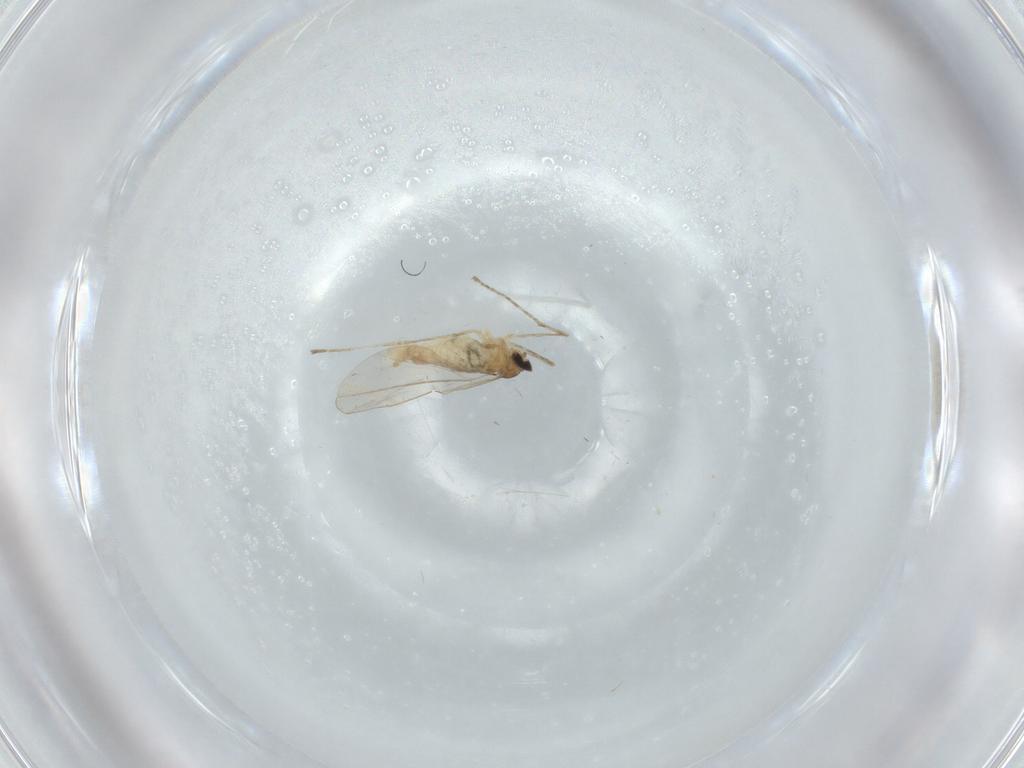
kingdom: Animalia
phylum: Arthropoda
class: Insecta
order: Diptera
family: Cecidomyiidae
